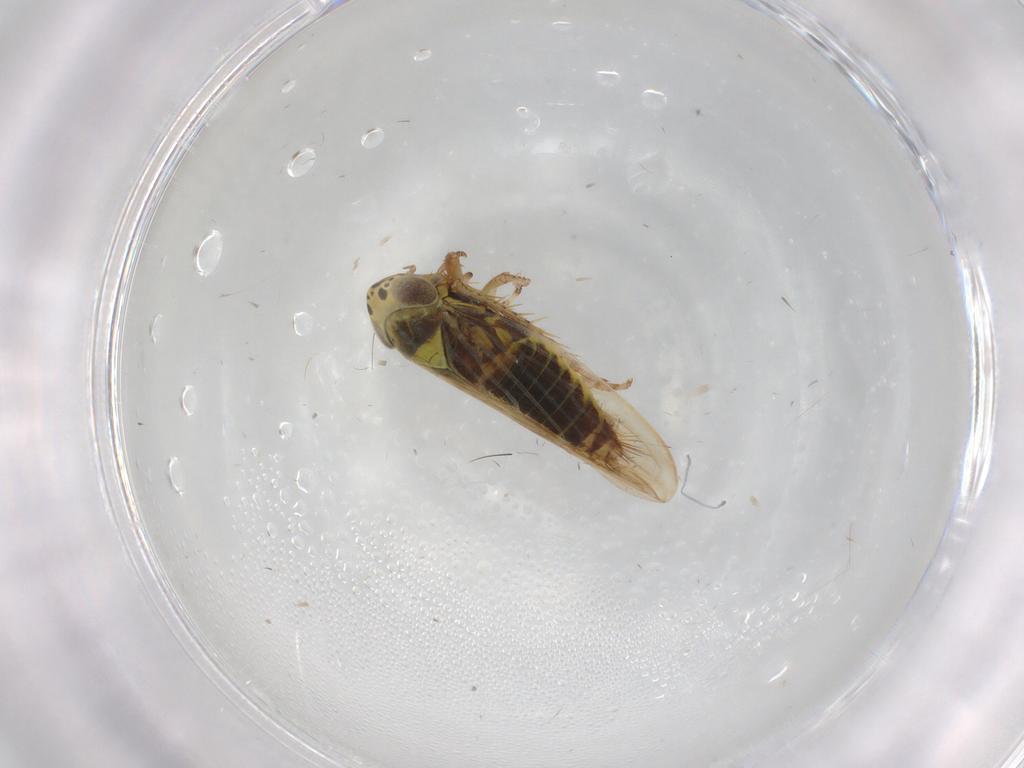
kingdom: Animalia
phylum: Arthropoda
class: Insecta
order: Hemiptera
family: Cicadellidae
